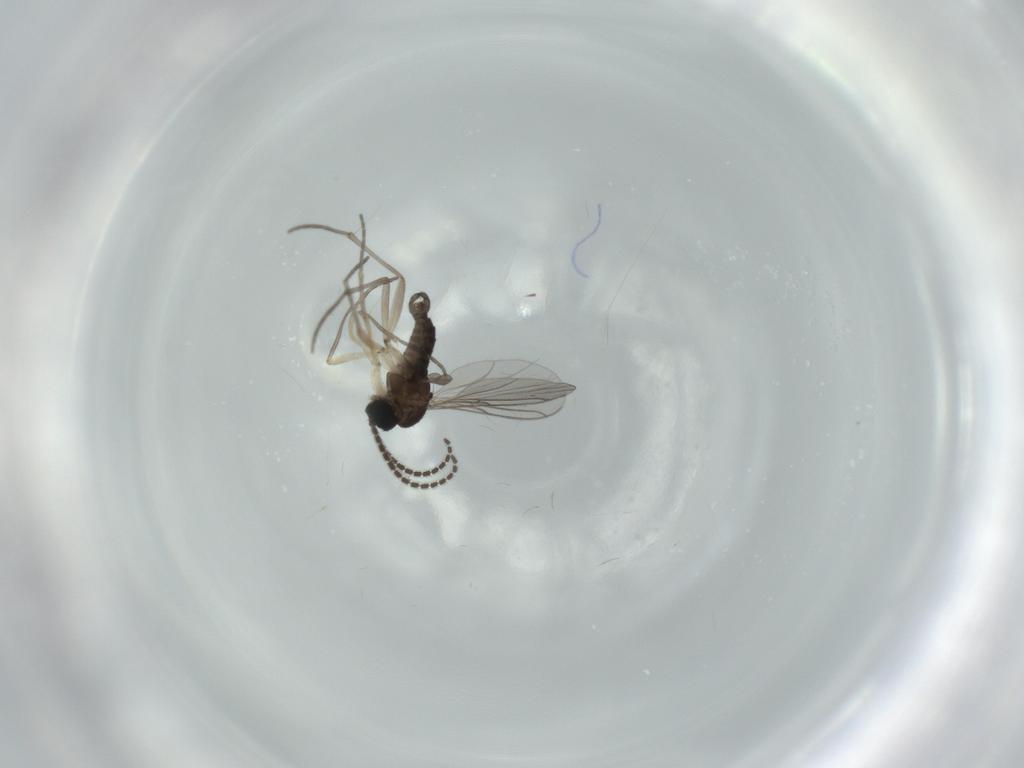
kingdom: Animalia
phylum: Arthropoda
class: Insecta
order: Diptera
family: Sciaridae
